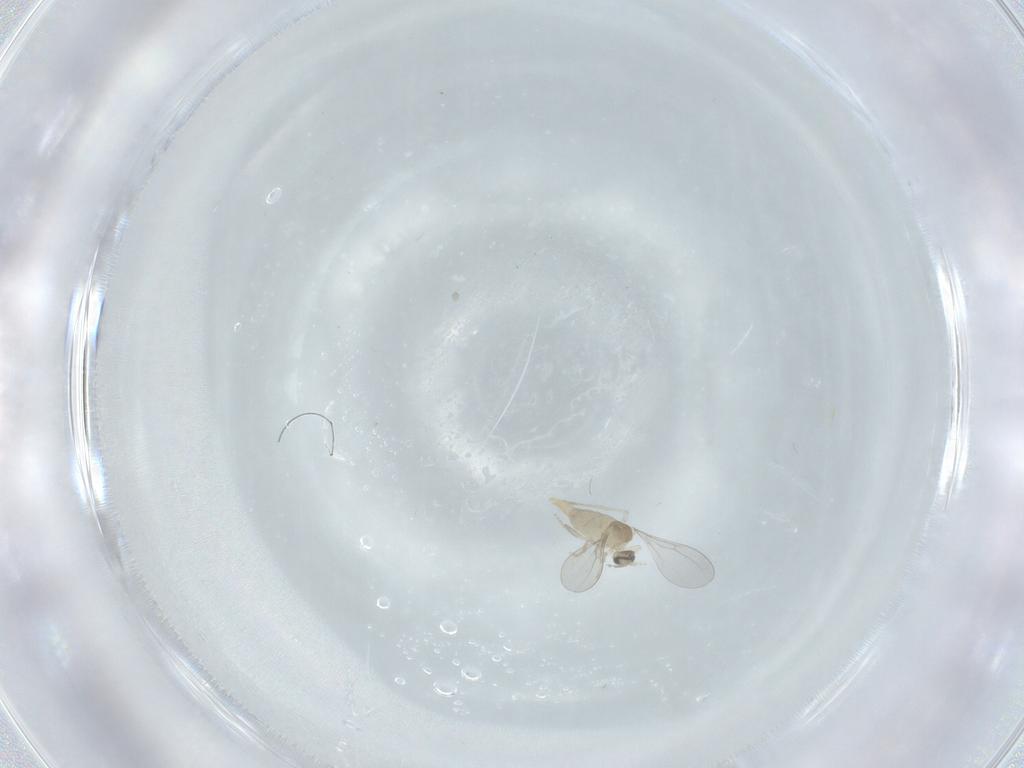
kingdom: Animalia
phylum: Arthropoda
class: Insecta
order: Diptera
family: Cecidomyiidae
